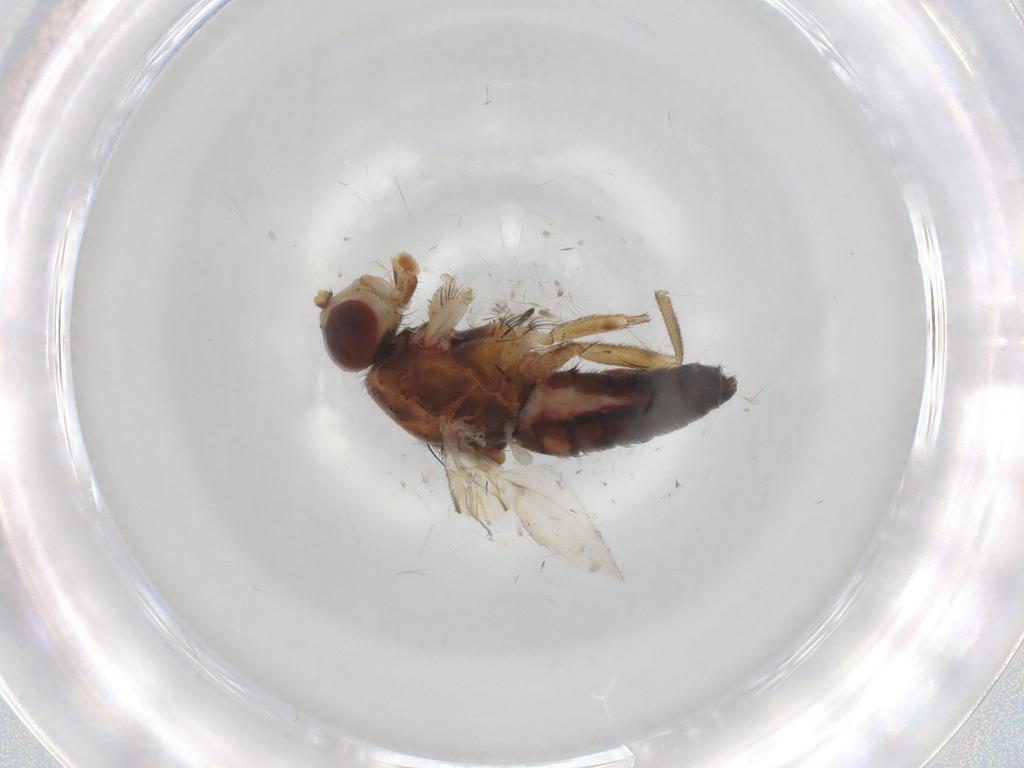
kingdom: Animalia
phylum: Arthropoda
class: Insecta
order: Diptera
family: Heleomyzidae
